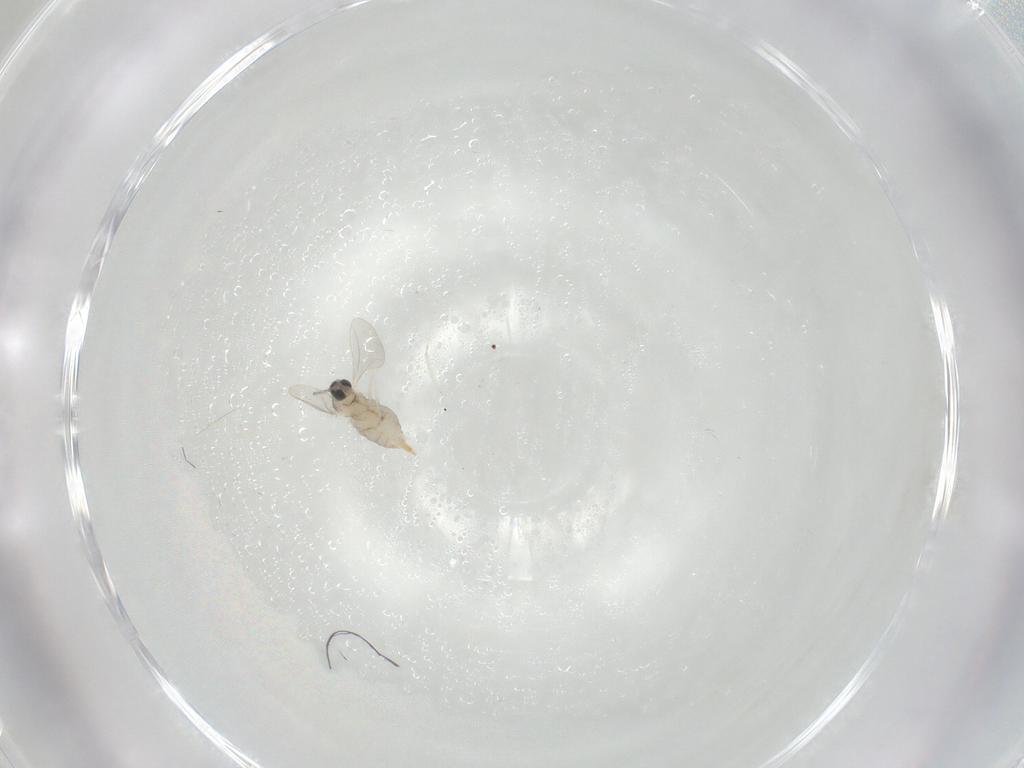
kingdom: Animalia
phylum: Arthropoda
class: Insecta
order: Diptera
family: Cecidomyiidae
